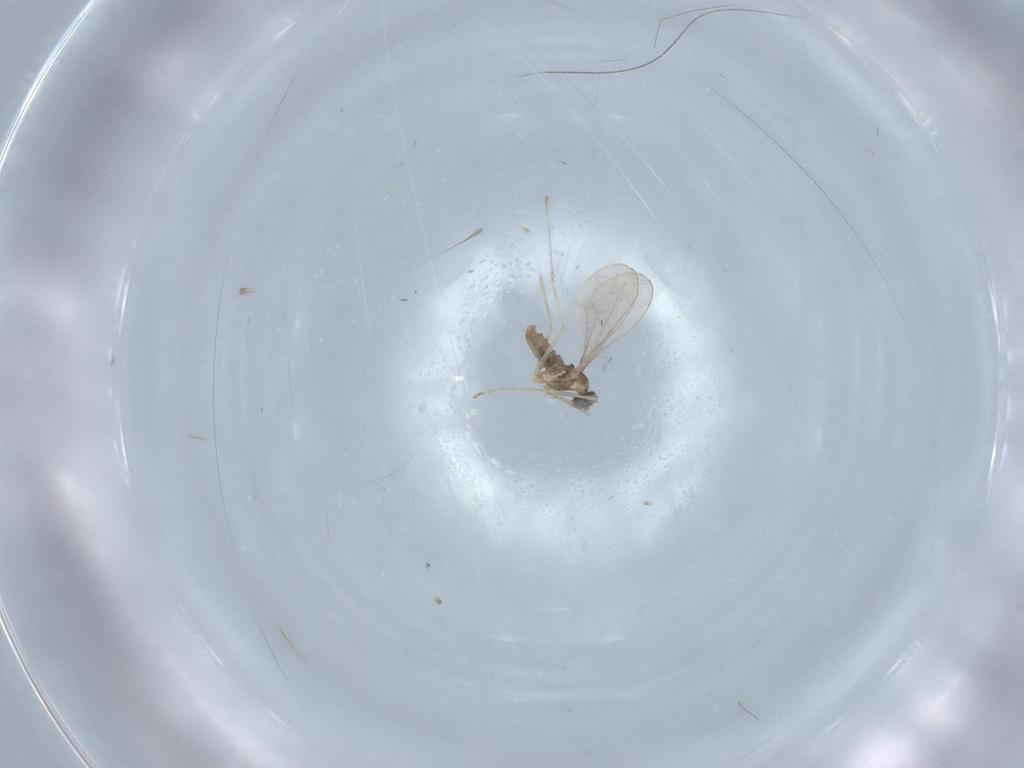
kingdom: Animalia
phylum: Arthropoda
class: Insecta
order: Diptera
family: Cecidomyiidae
